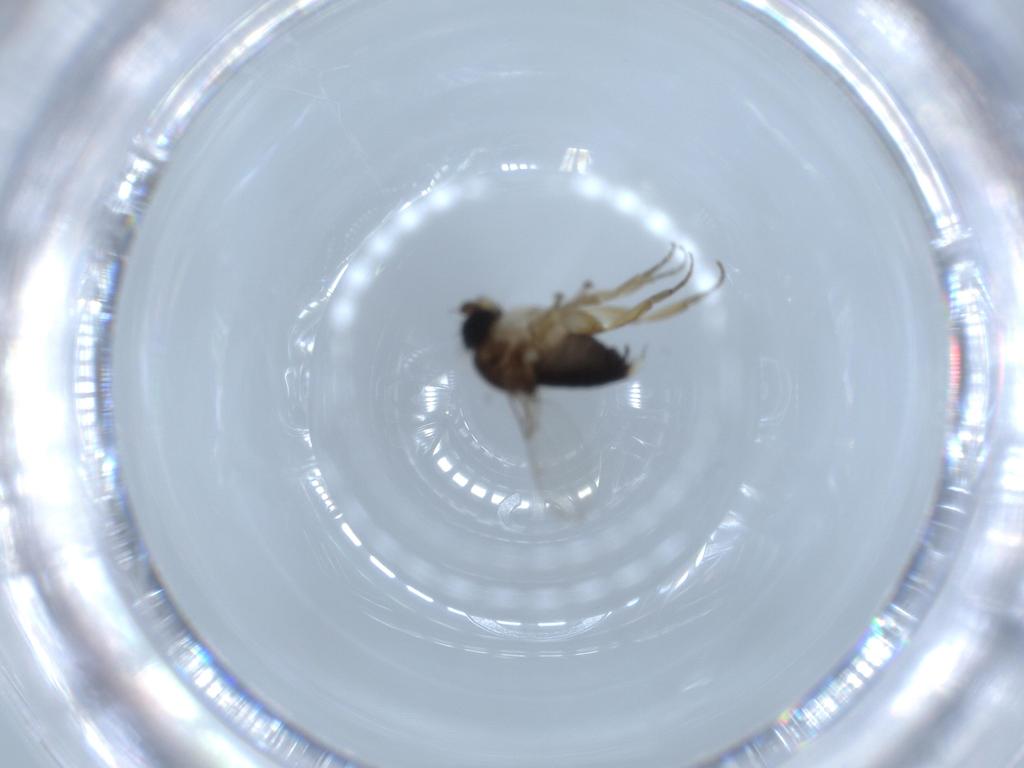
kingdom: Animalia
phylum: Arthropoda
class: Insecta
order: Diptera
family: Phoridae
